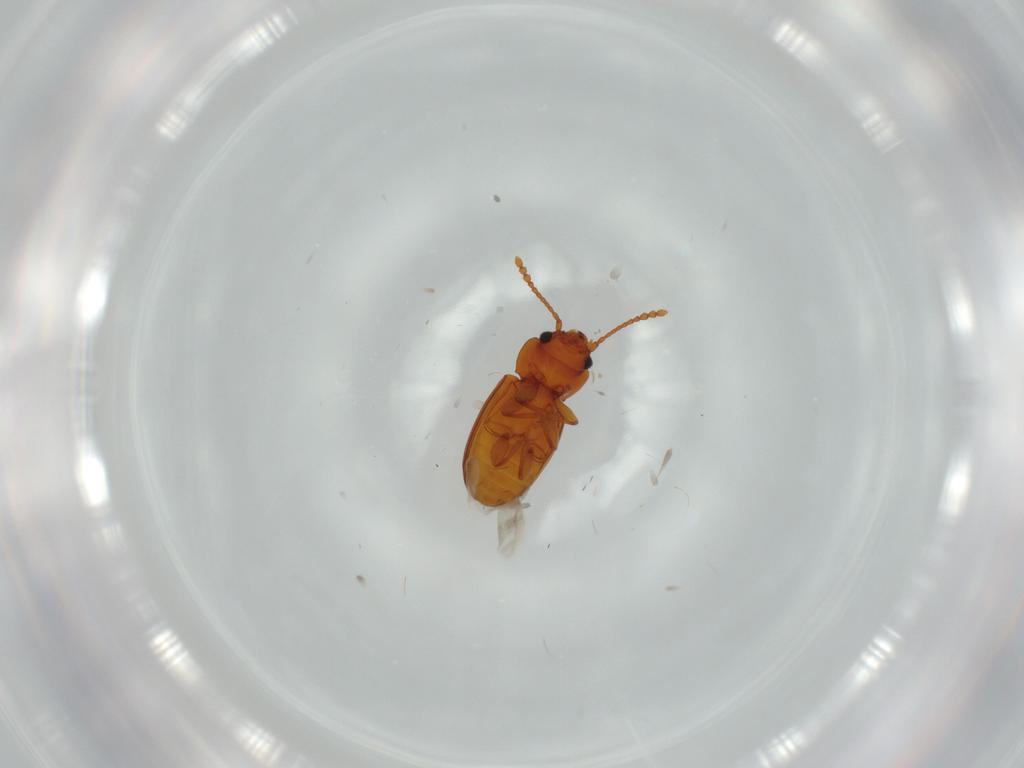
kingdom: Animalia
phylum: Arthropoda
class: Insecta
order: Coleoptera
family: Laemophloeidae
